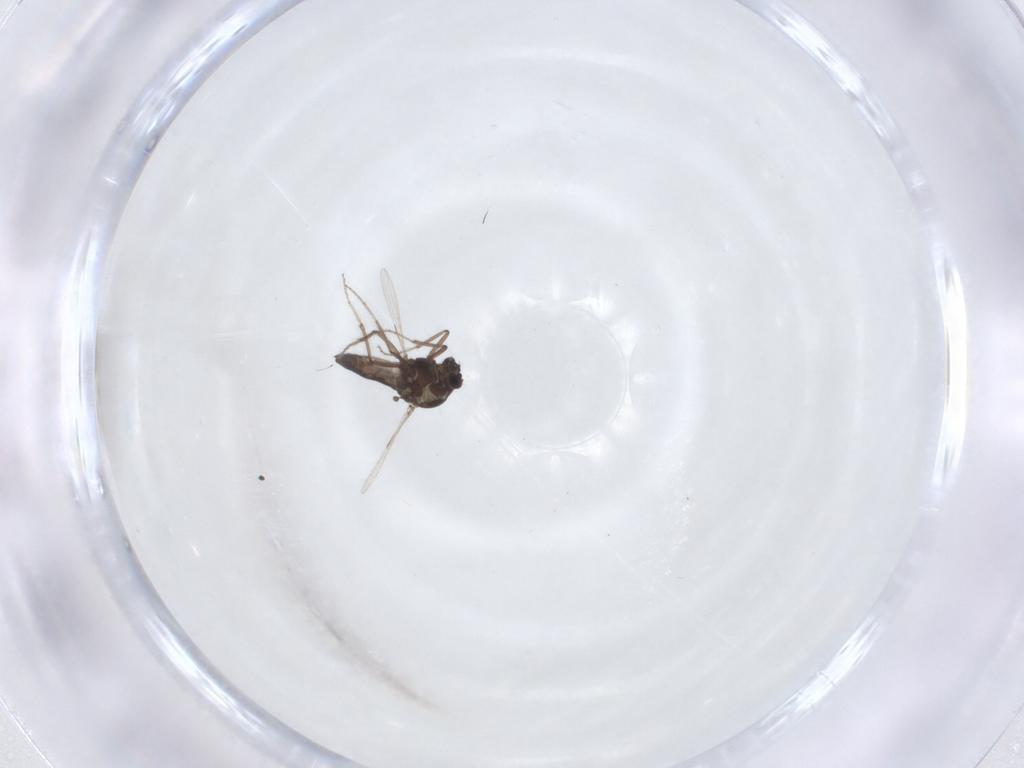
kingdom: Animalia
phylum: Arthropoda
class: Insecta
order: Diptera
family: Ceratopogonidae
